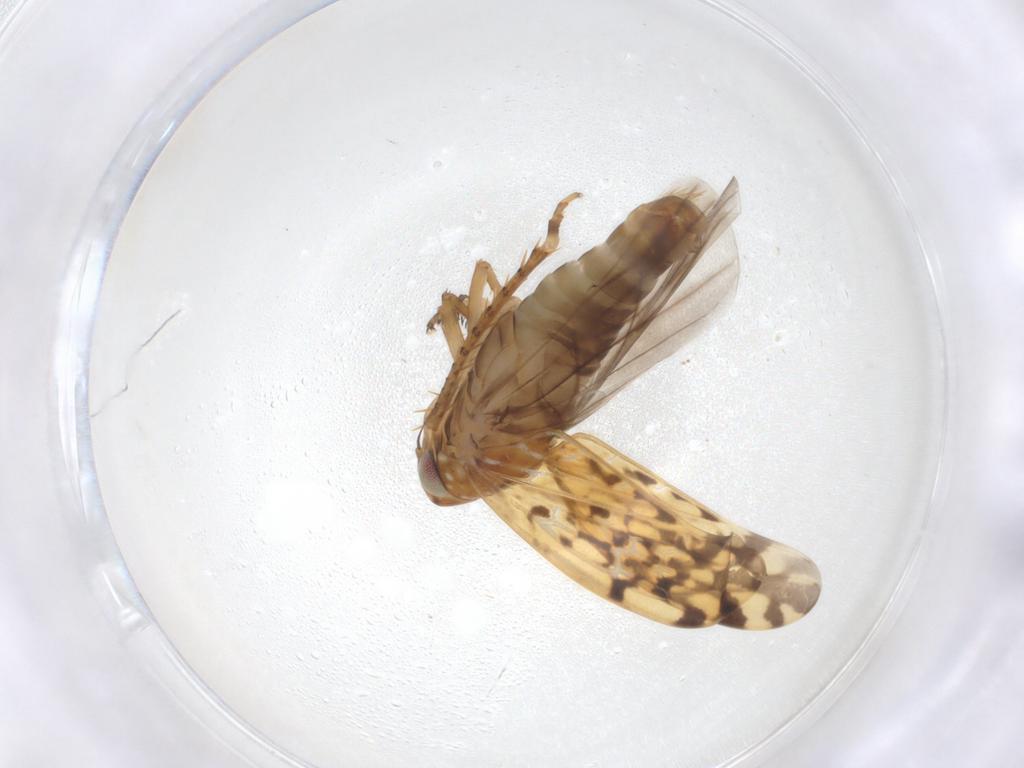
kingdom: Animalia
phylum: Arthropoda
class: Insecta
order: Hemiptera
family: Cicadellidae
